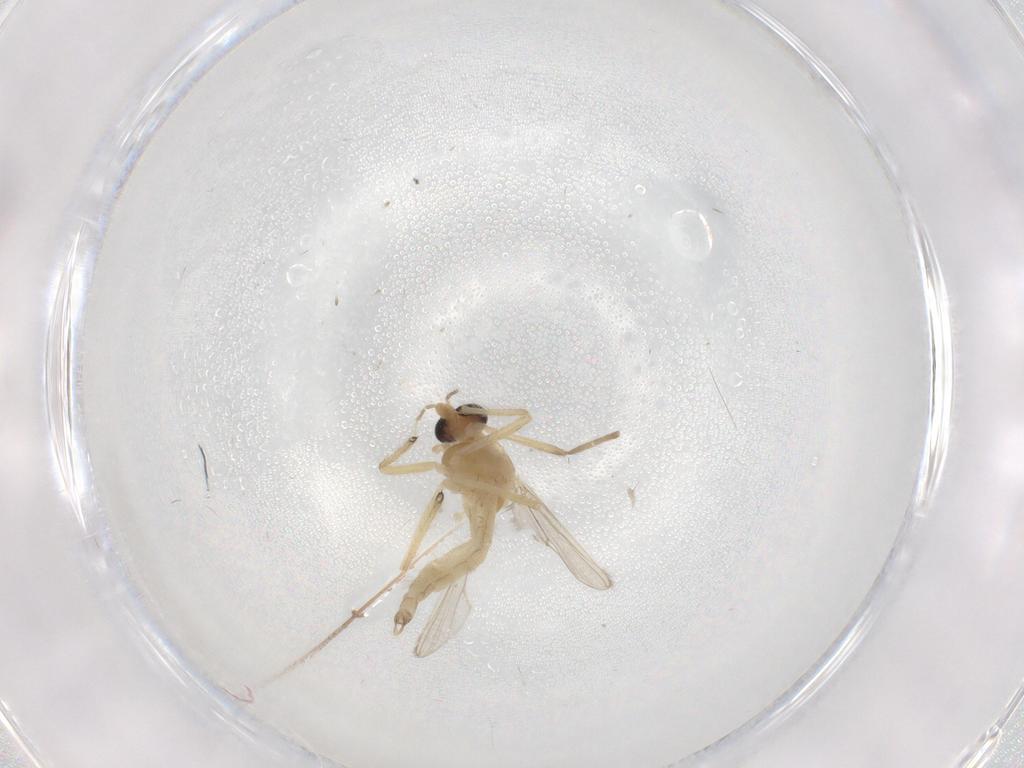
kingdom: Animalia
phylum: Arthropoda
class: Insecta
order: Diptera
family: Chironomidae
